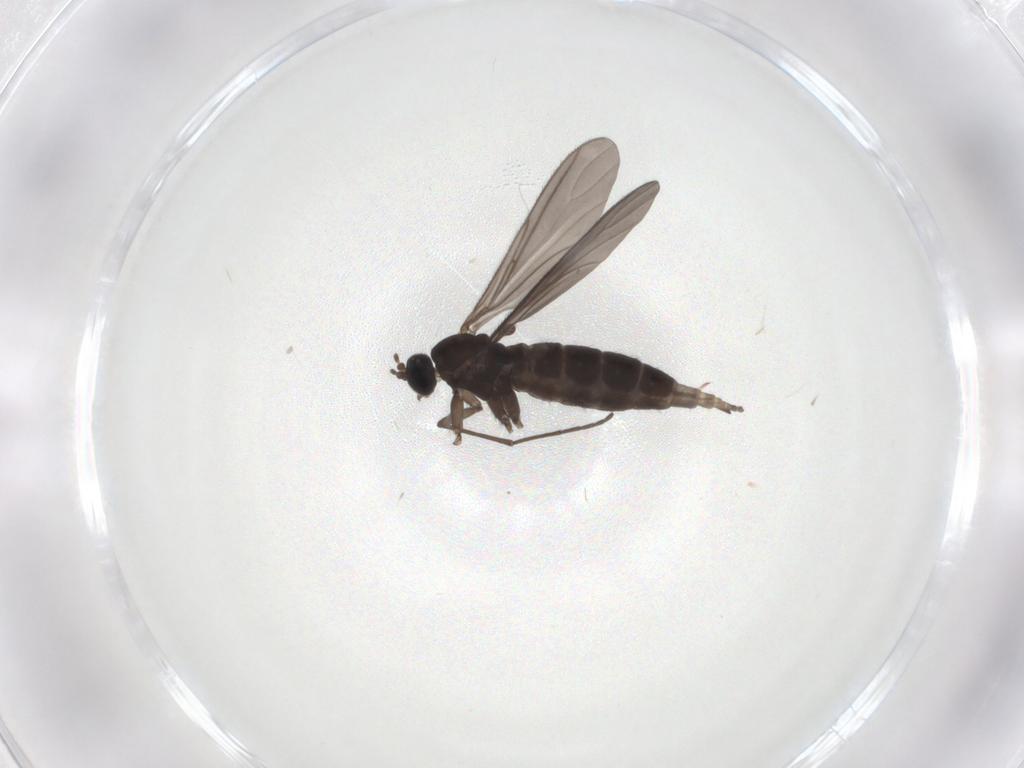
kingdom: Animalia
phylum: Arthropoda
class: Insecta
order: Diptera
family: Sciaridae
